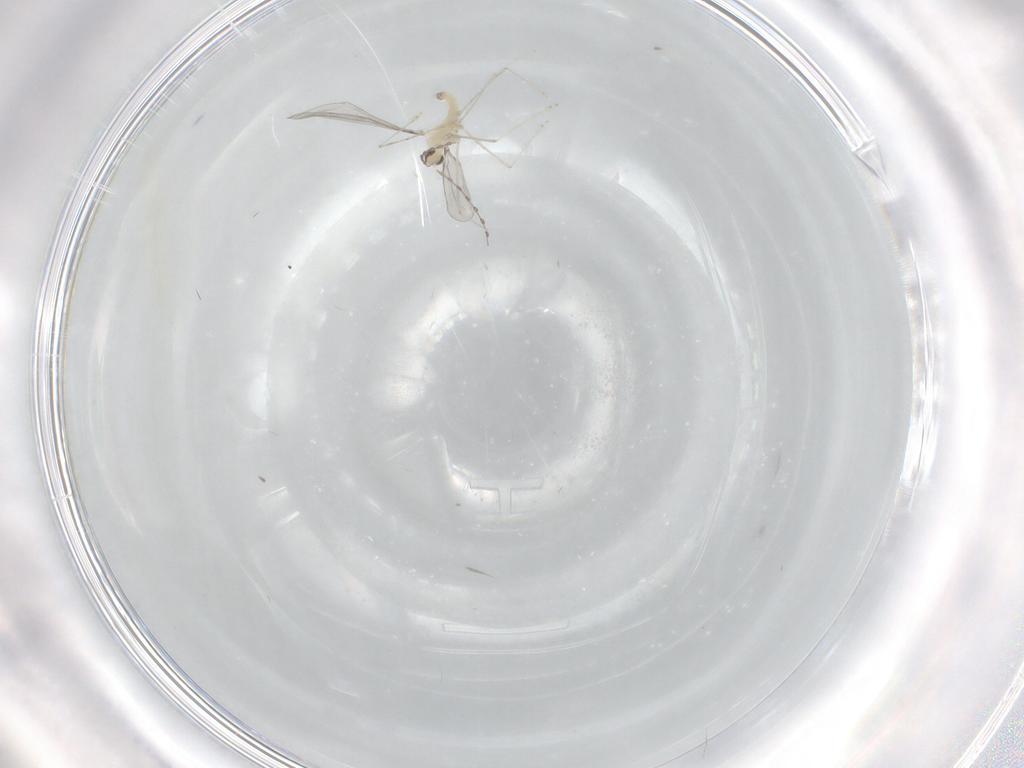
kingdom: Animalia
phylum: Arthropoda
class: Insecta
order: Diptera
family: Cecidomyiidae
